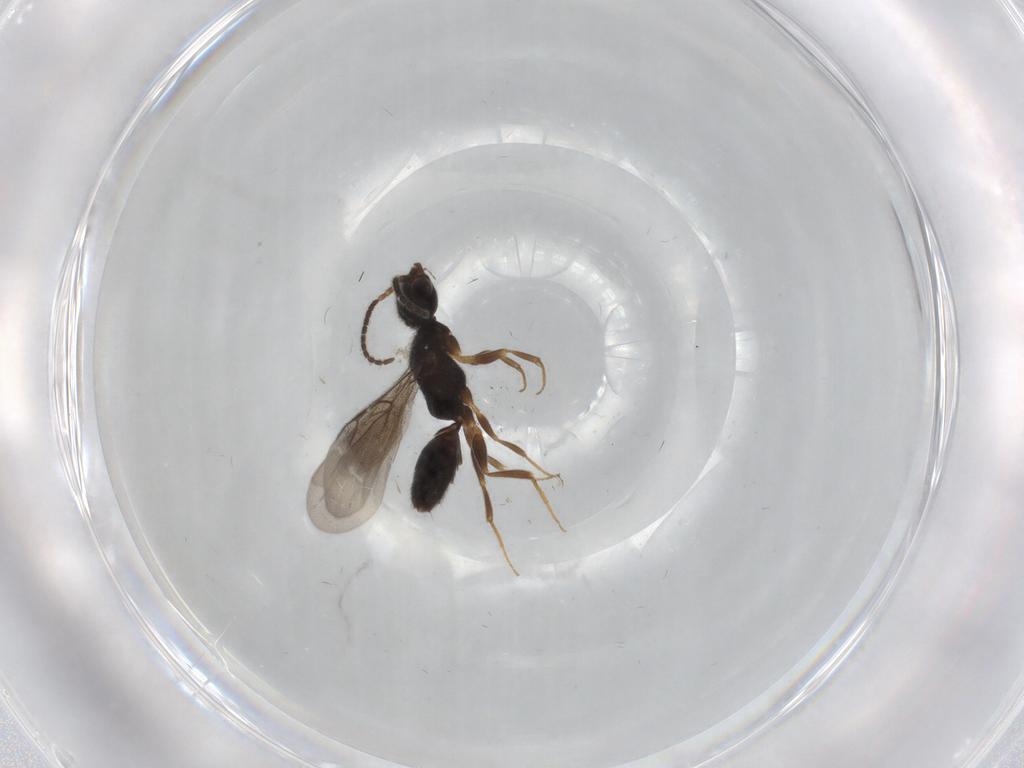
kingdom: Animalia
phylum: Arthropoda
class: Insecta
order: Hymenoptera
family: Bethylidae
